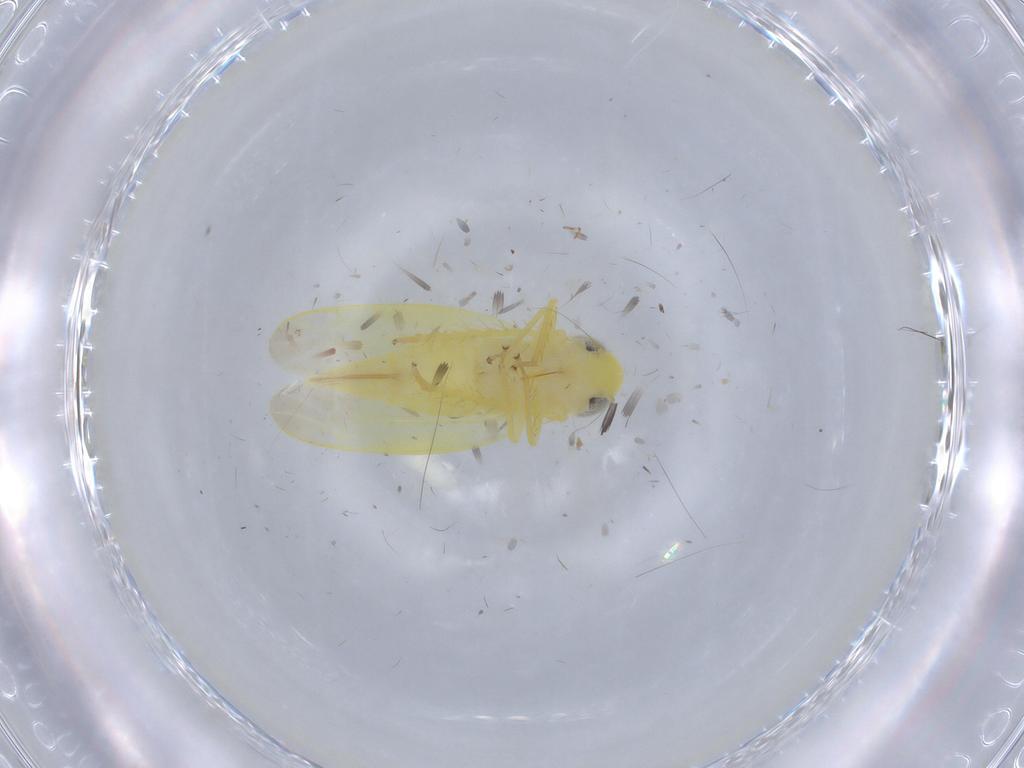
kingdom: Animalia
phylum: Arthropoda
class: Insecta
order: Hemiptera
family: Cicadellidae
